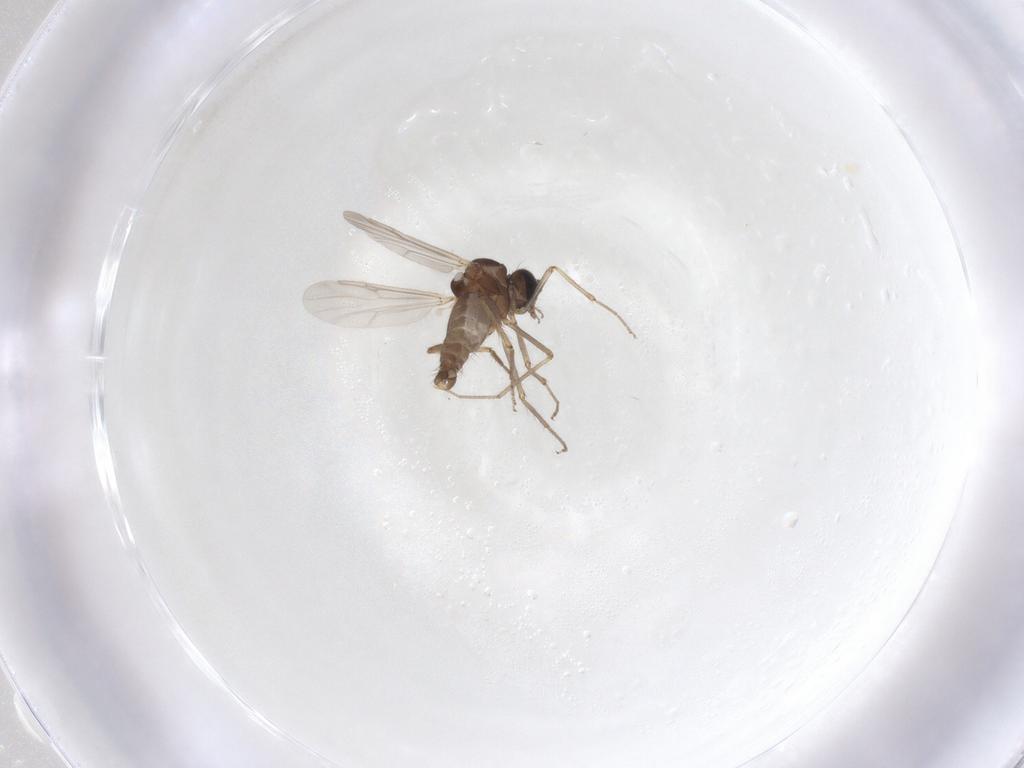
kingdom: Animalia
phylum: Arthropoda
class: Insecta
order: Diptera
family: Ceratopogonidae
